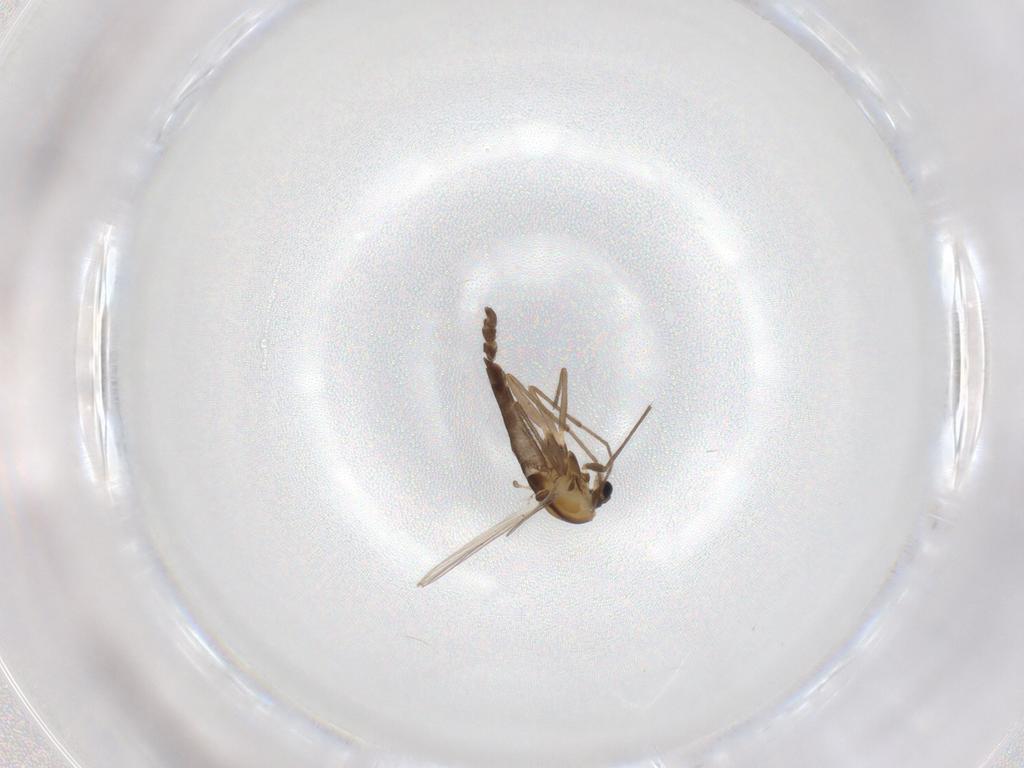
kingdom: Animalia
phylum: Arthropoda
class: Insecta
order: Diptera
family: Chironomidae
